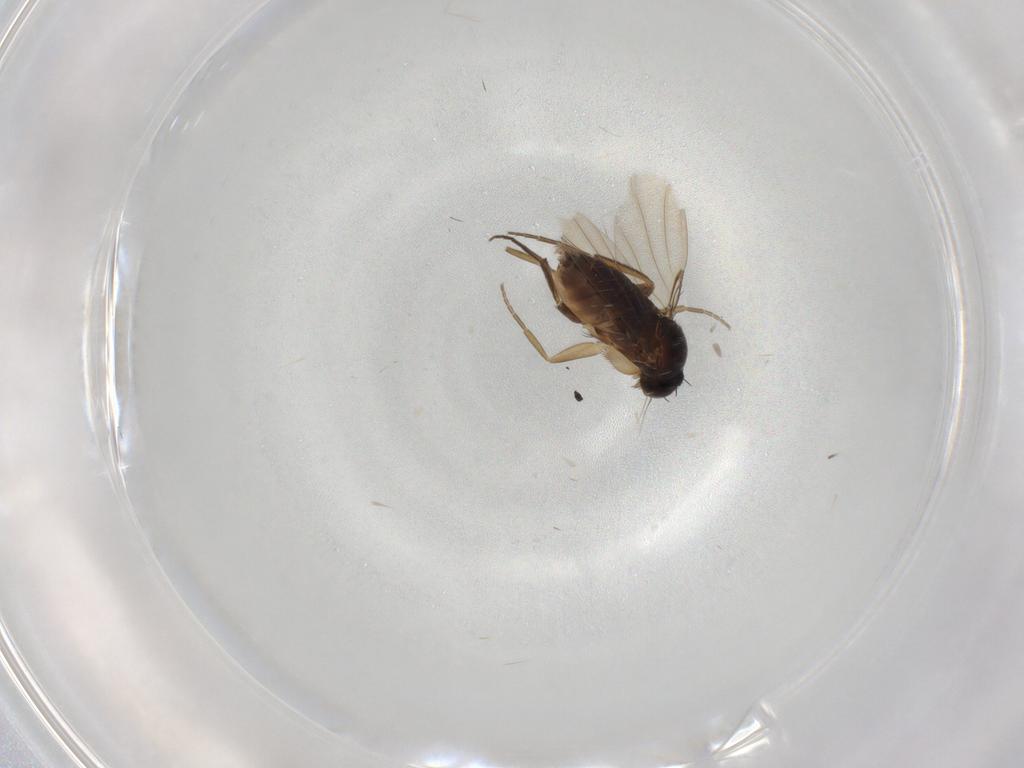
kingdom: Animalia
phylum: Arthropoda
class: Insecta
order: Diptera
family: Phoridae
